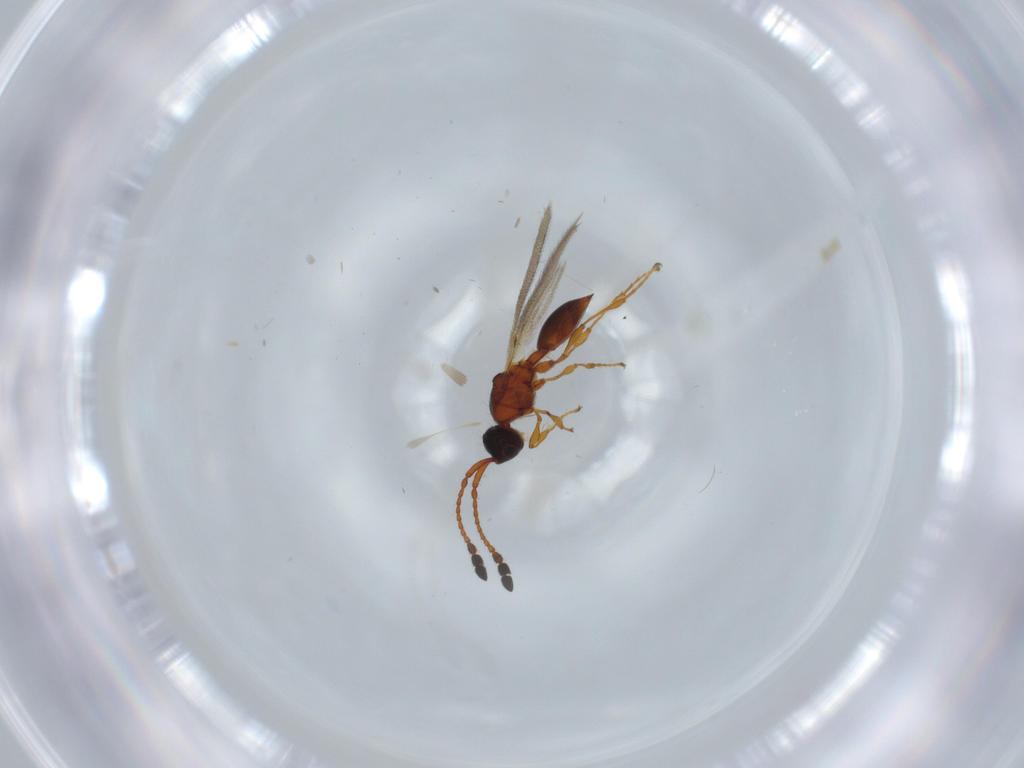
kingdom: Animalia
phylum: Arthropoda
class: Insecta
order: Hymenoptera
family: Diapriidae
